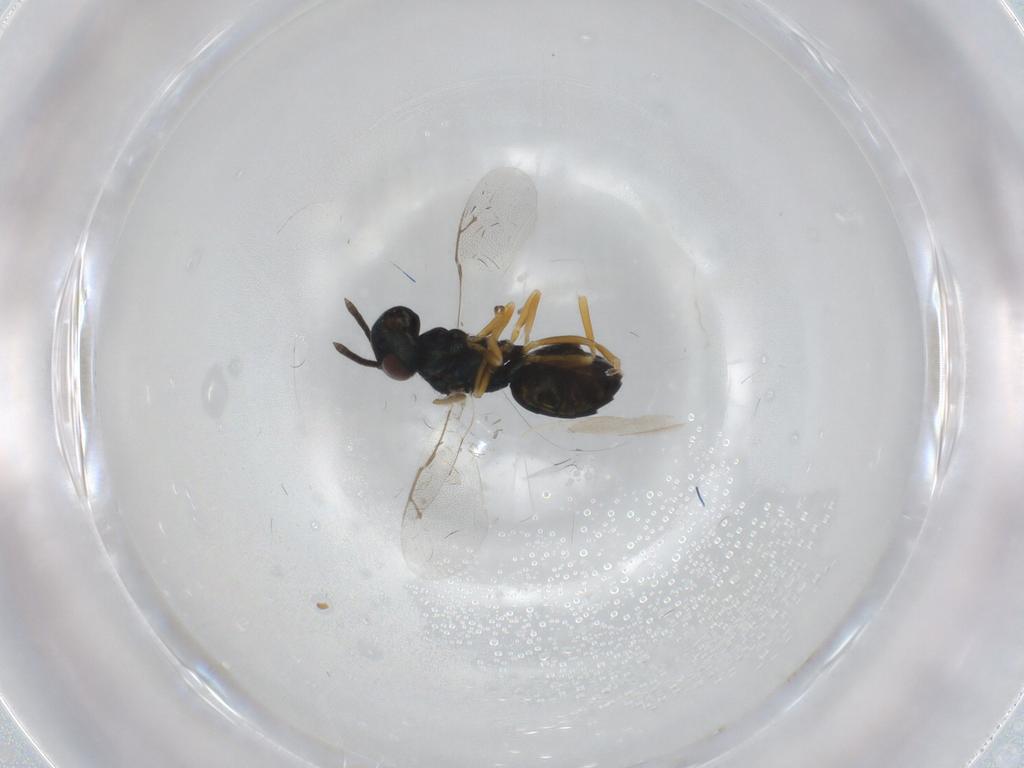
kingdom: Animalia
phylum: Arthropoda
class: Insecta
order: Hymenoptera
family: Pteromalidae
